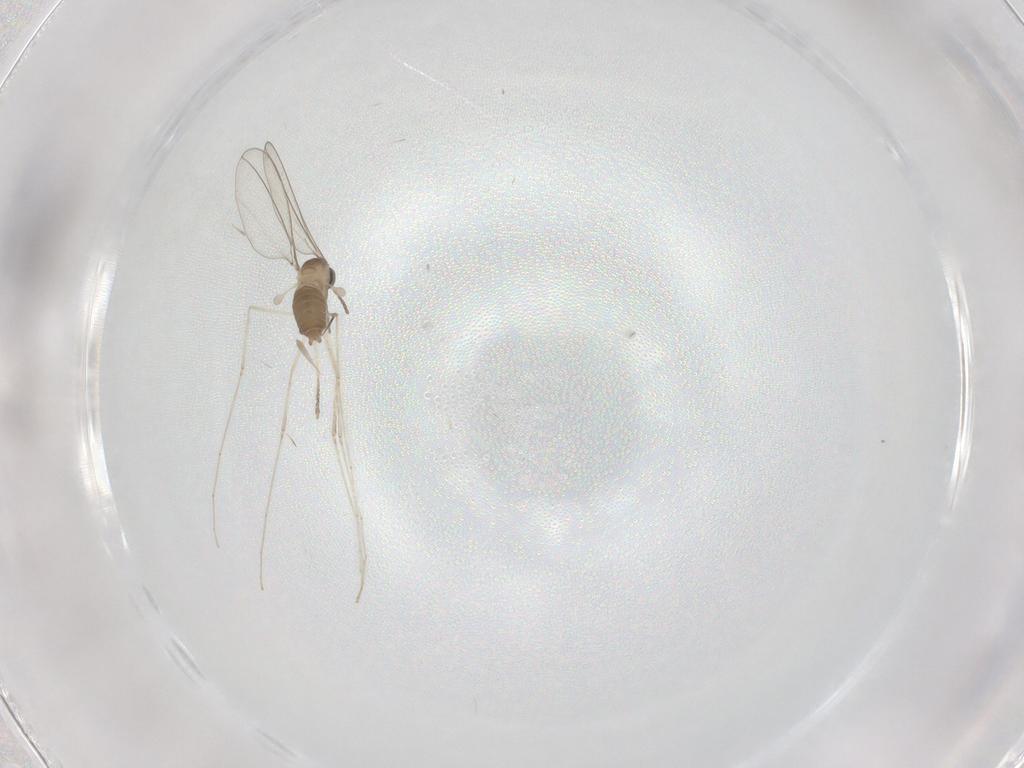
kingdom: Animalia
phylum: Arthropoda
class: Insecta
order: Diptera
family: Cecidomyiidae
